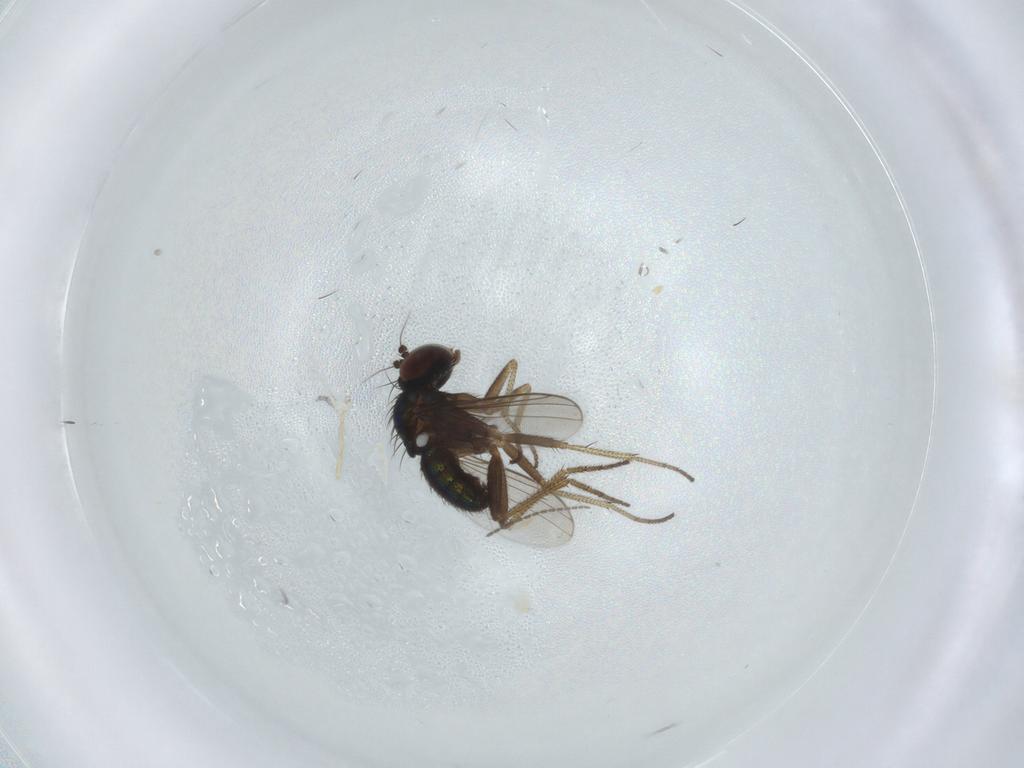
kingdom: Animalia
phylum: Arthropoda
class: Insecta
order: Diptera
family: Sciaridae
